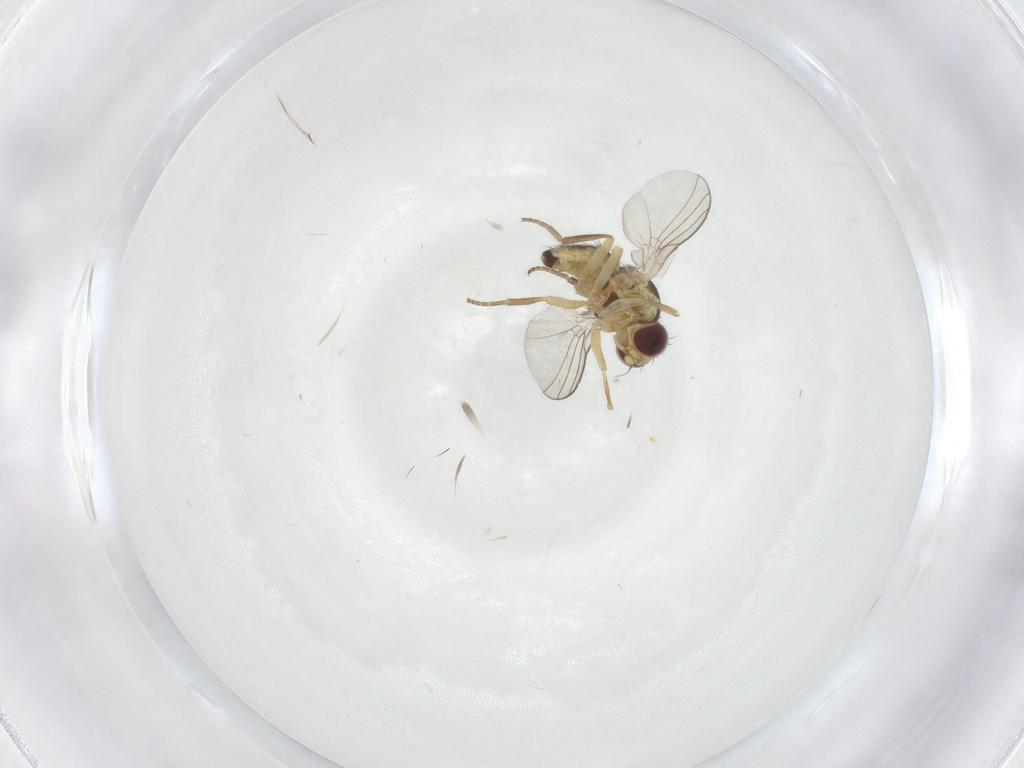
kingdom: Animalia
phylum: Arthropoda
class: Insecta
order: Diptera
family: Agromyzidae
